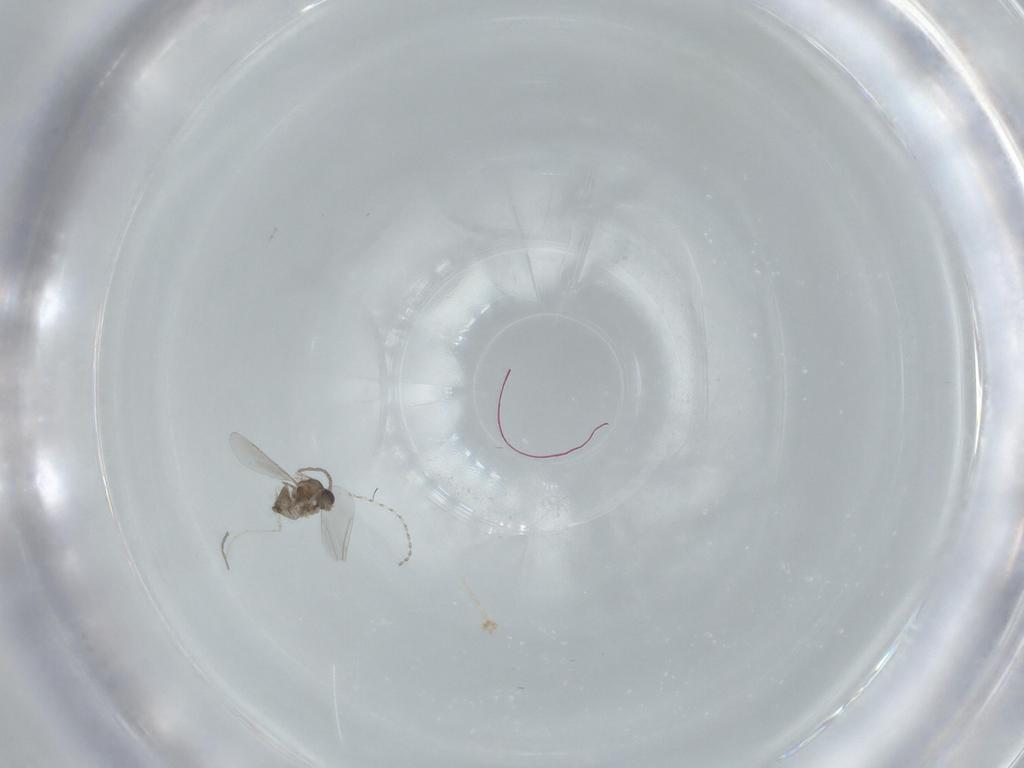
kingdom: Animalia
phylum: Arthropoda
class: Insecta
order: Diptera
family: Cecidomyiidae
